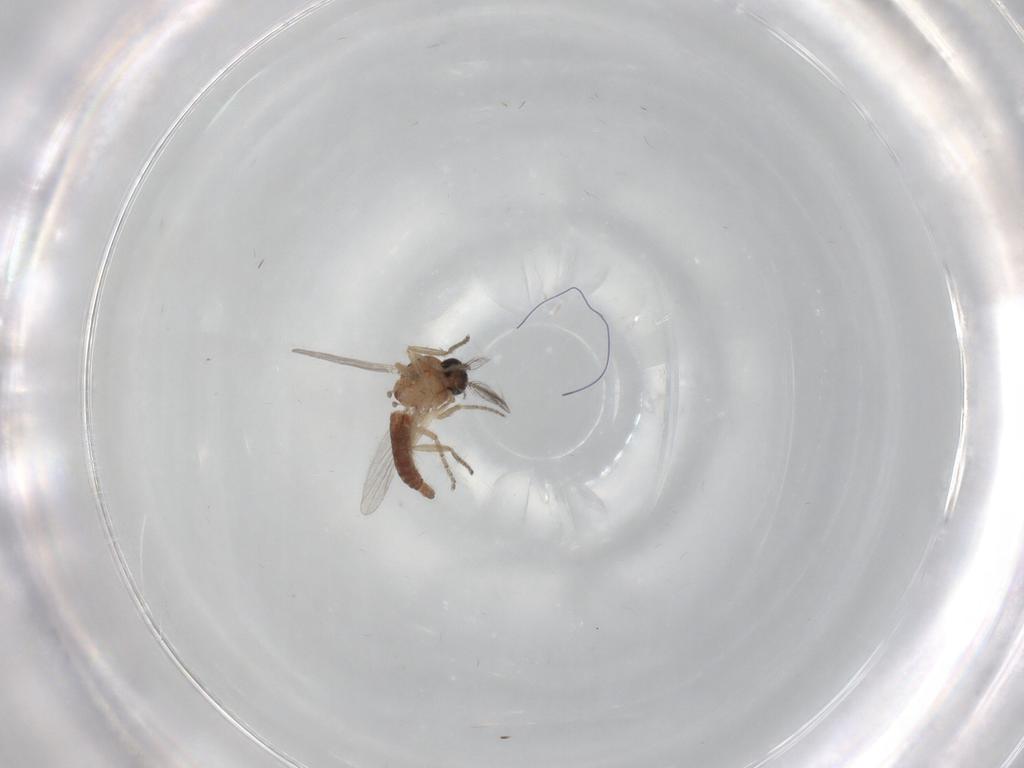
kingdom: Animalia
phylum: Arthropoda
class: Insecta
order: Diptera
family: Ceratopogonidae
